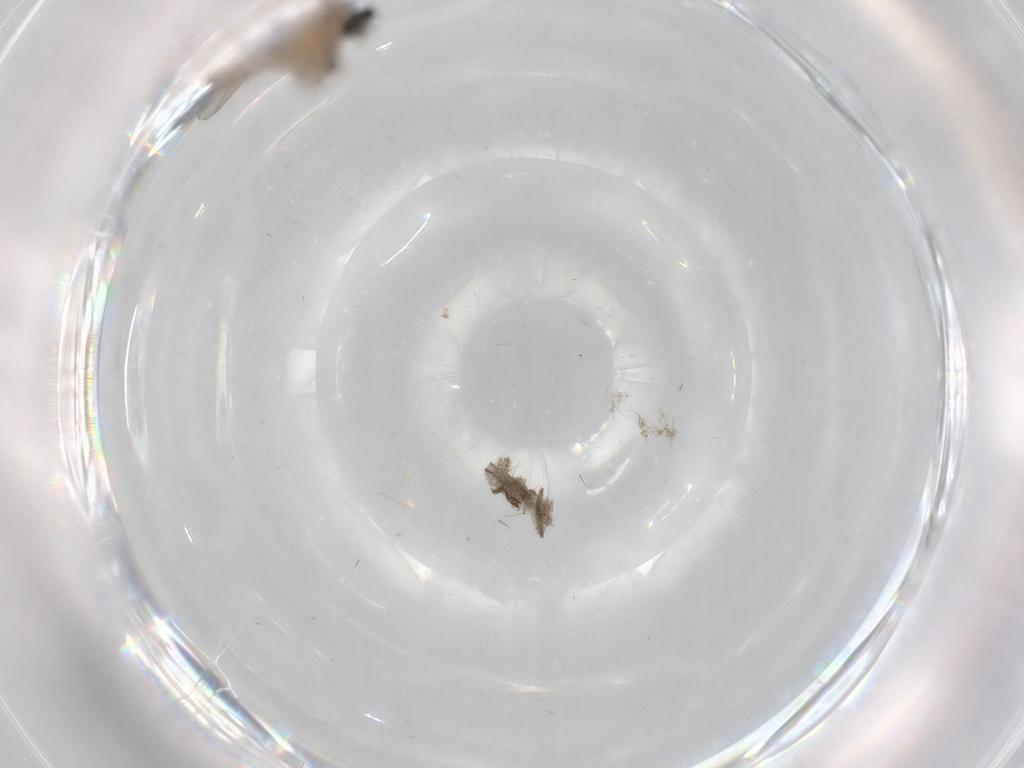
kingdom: Animalia
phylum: Arthropoda
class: Insecta
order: Diptera
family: Cecidomyiidae
